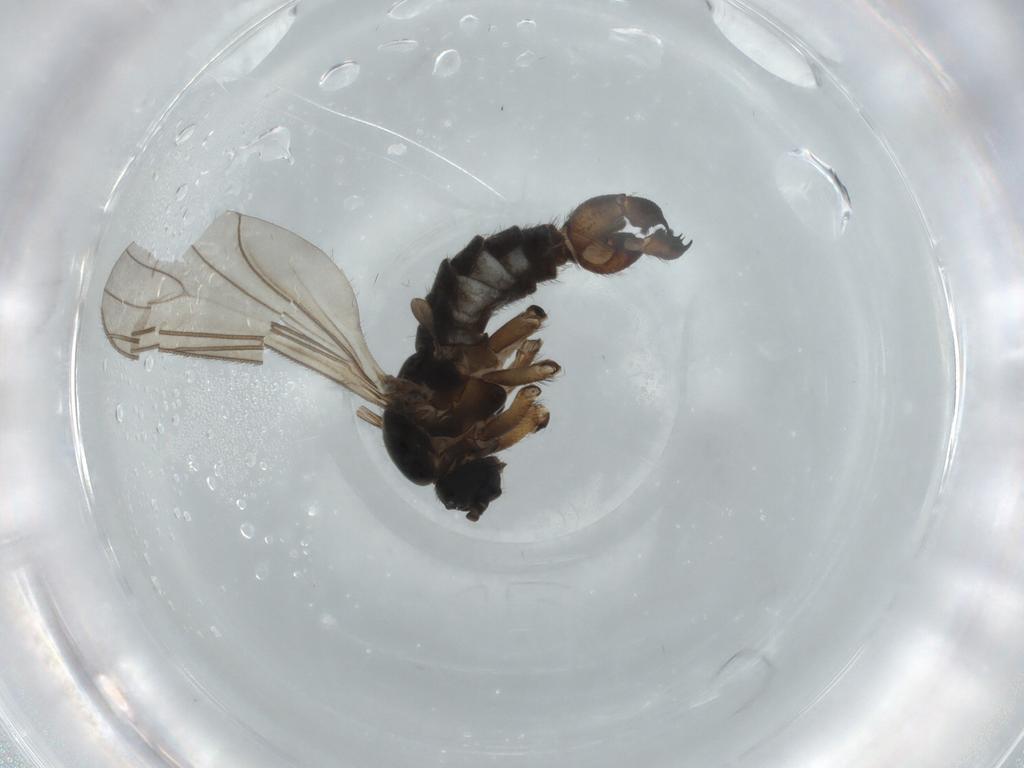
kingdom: Animalia
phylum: Arthropoda
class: Insecta
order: Diptera
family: Sciaridae
